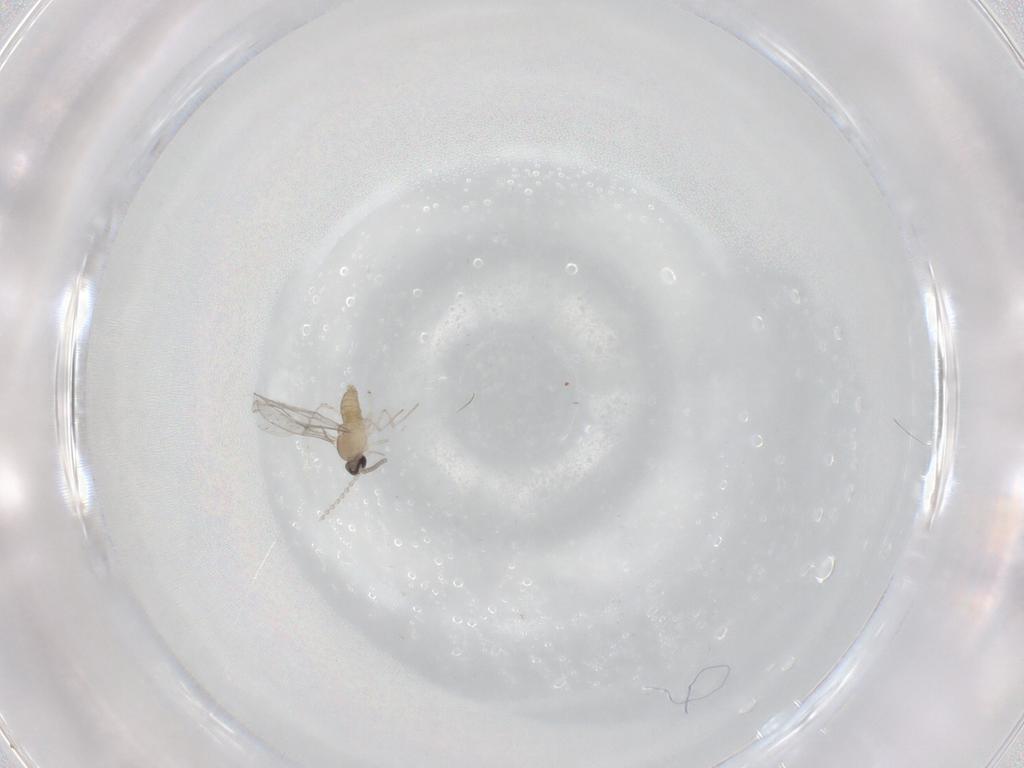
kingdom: Animalia
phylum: Arthropoda
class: Insecta
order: Diptera
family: Cecidomyiidae
